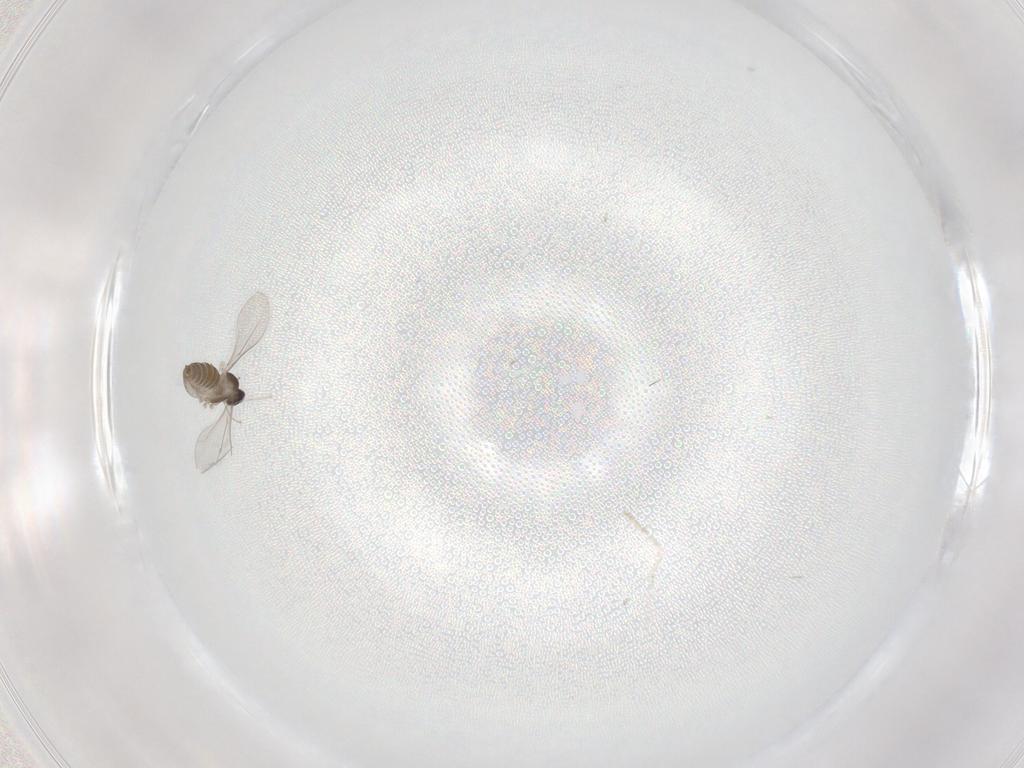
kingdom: Animalia
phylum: Arthropoda
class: Insecta
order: Diptera
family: Cecidomyiidae
